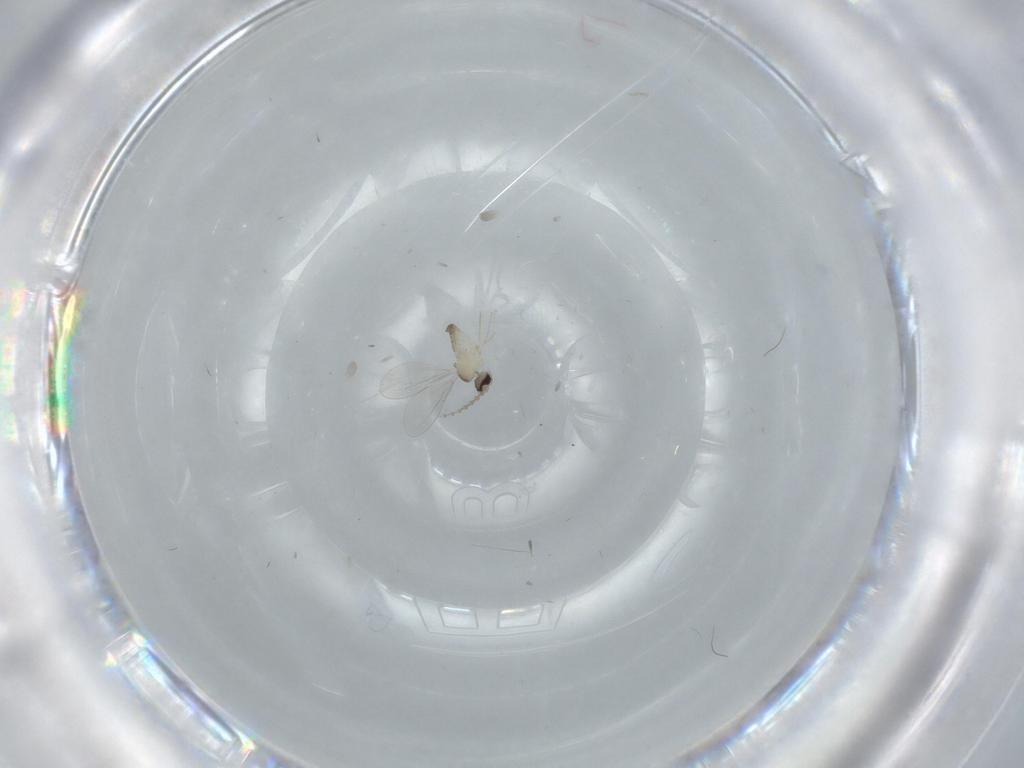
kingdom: Animalia
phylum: Arthropoda
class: Insecta
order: Diptera
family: Cecidomyiidae
